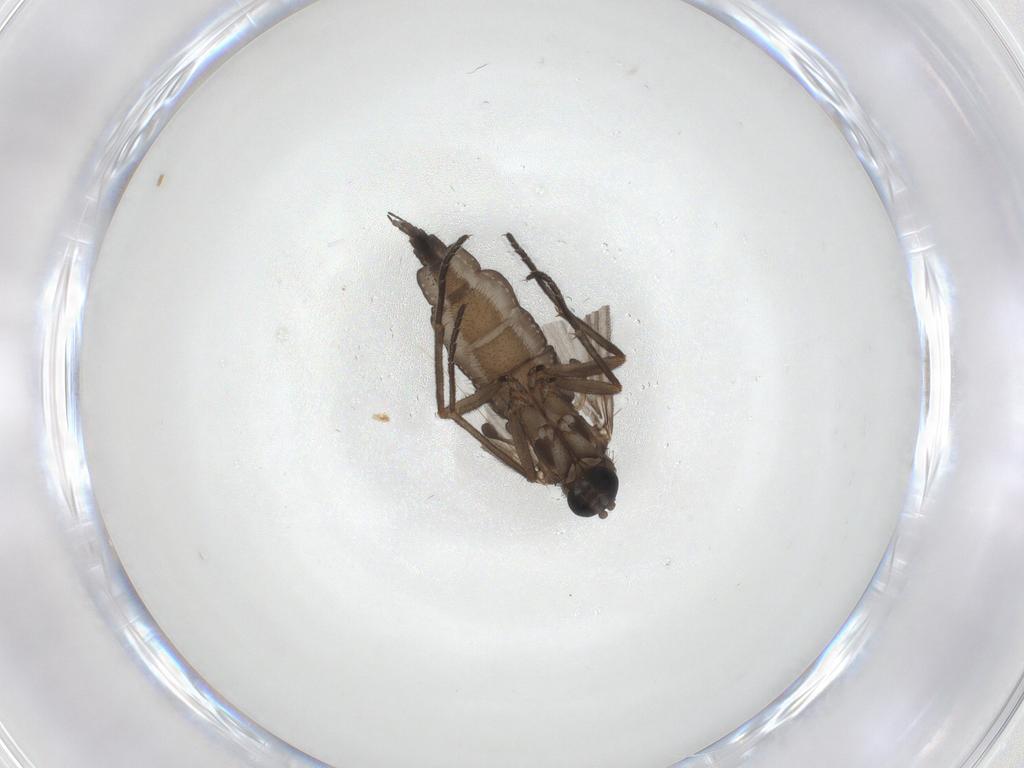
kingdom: Animalia
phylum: Arthropoda
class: Insecta
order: Diptera
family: Sciaridae
